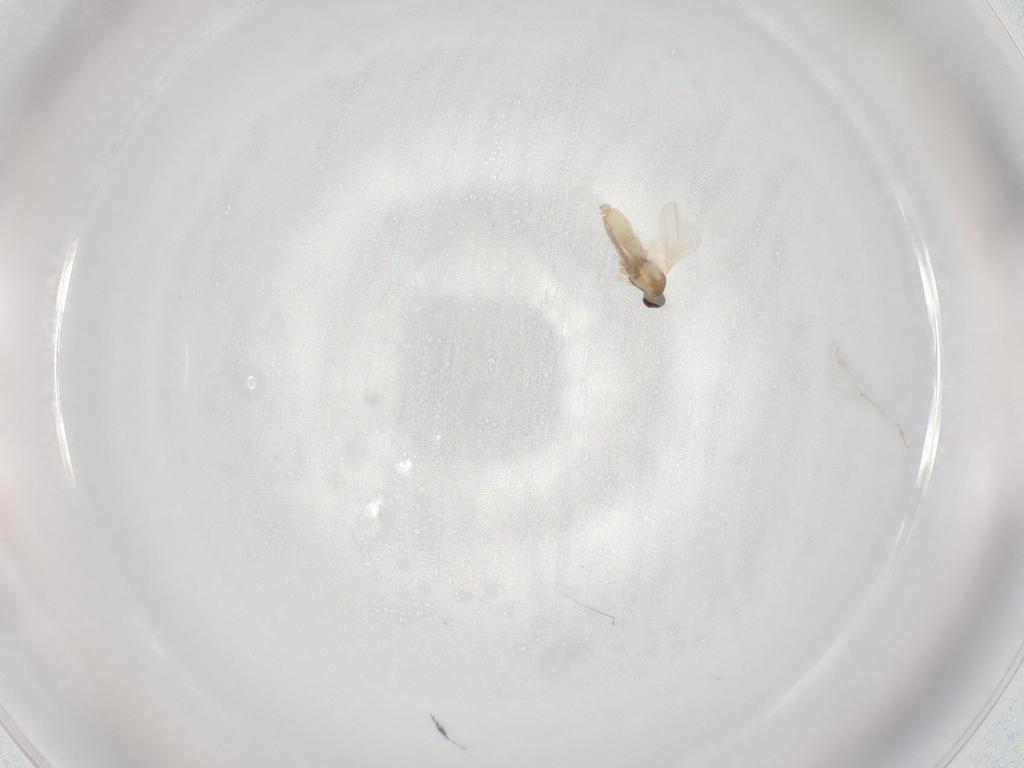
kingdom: Animalia
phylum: Arthropoda
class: Insecta
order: Diptera
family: Cecidomyiidae
